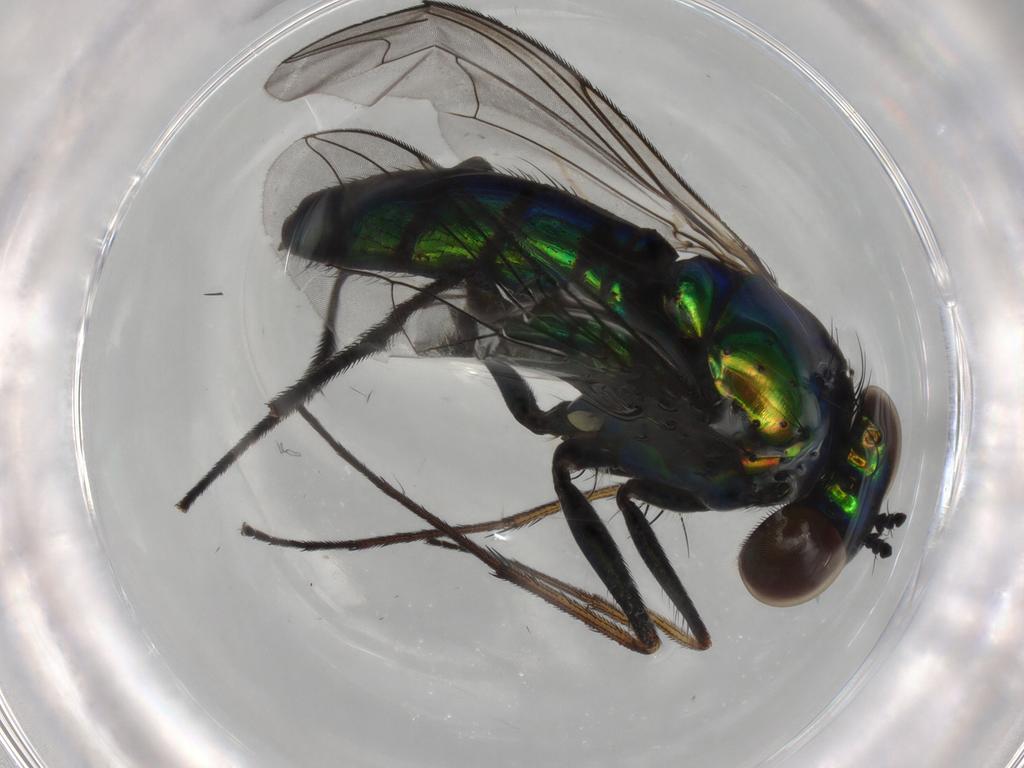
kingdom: Animalia
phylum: Arthropoda
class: Insecta
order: Diptera
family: Dolichopodidae
